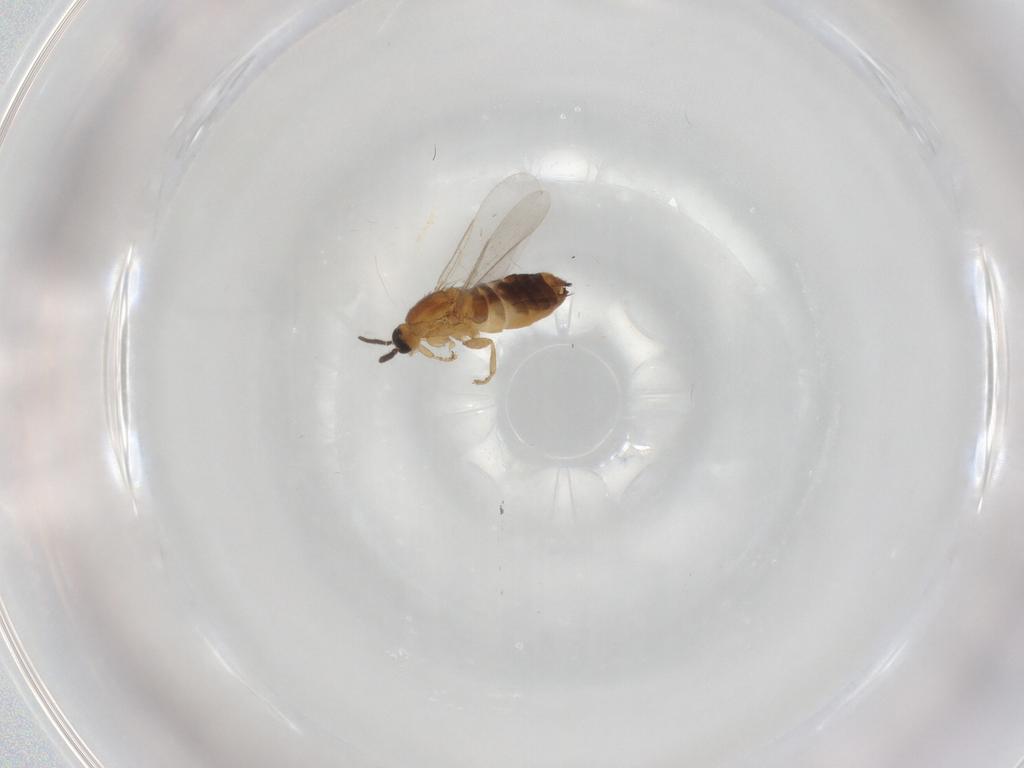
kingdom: Animalia
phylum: Arthropoda
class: Insecta
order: Diptera
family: Scatopsidae
